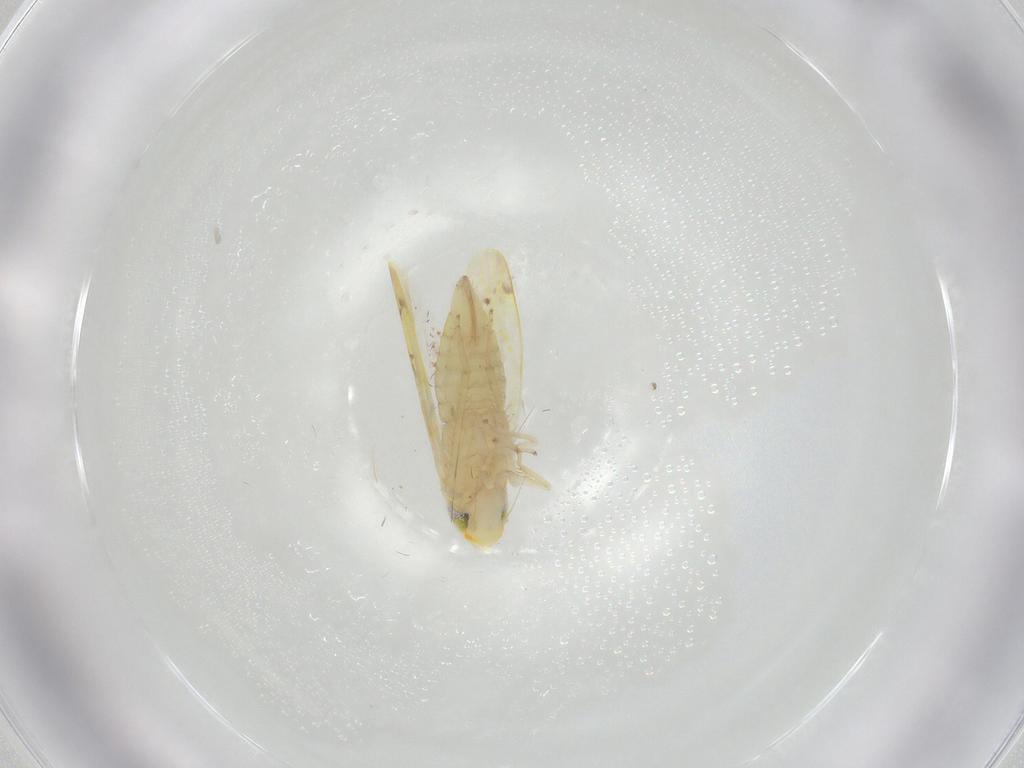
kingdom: Animalia
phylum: Arthropoda
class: Insecta
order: Hemiptera
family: Cicadellidae
